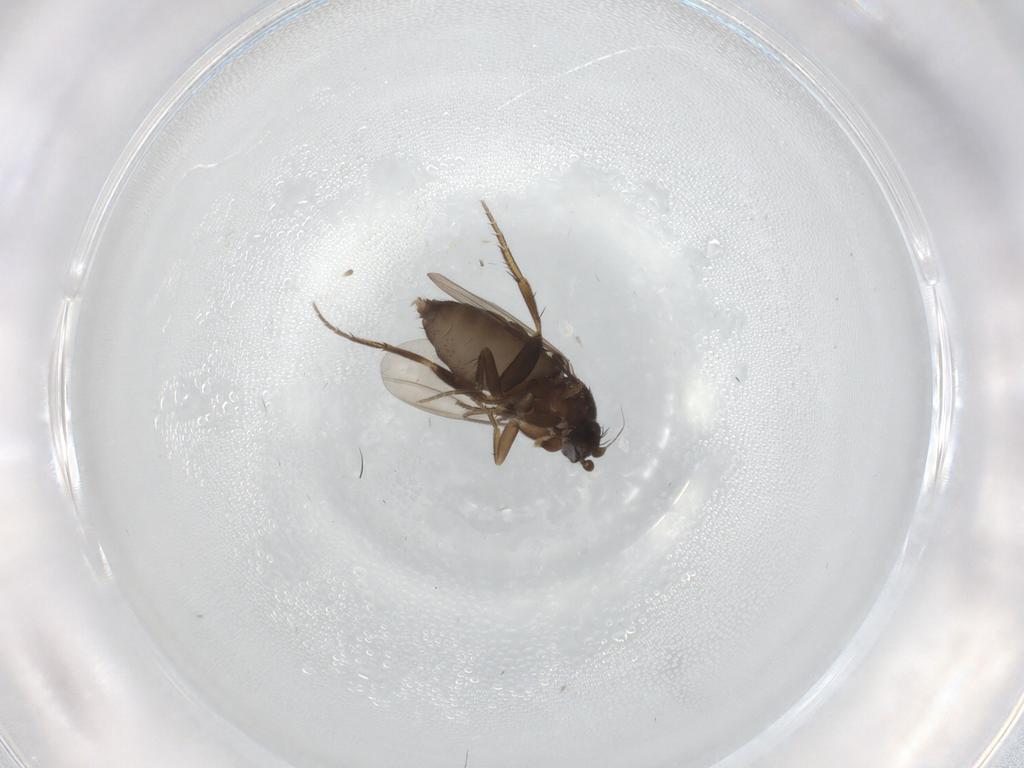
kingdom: Animalia
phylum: Arthropoda
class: Insecta
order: Diptera
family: Phoridae
